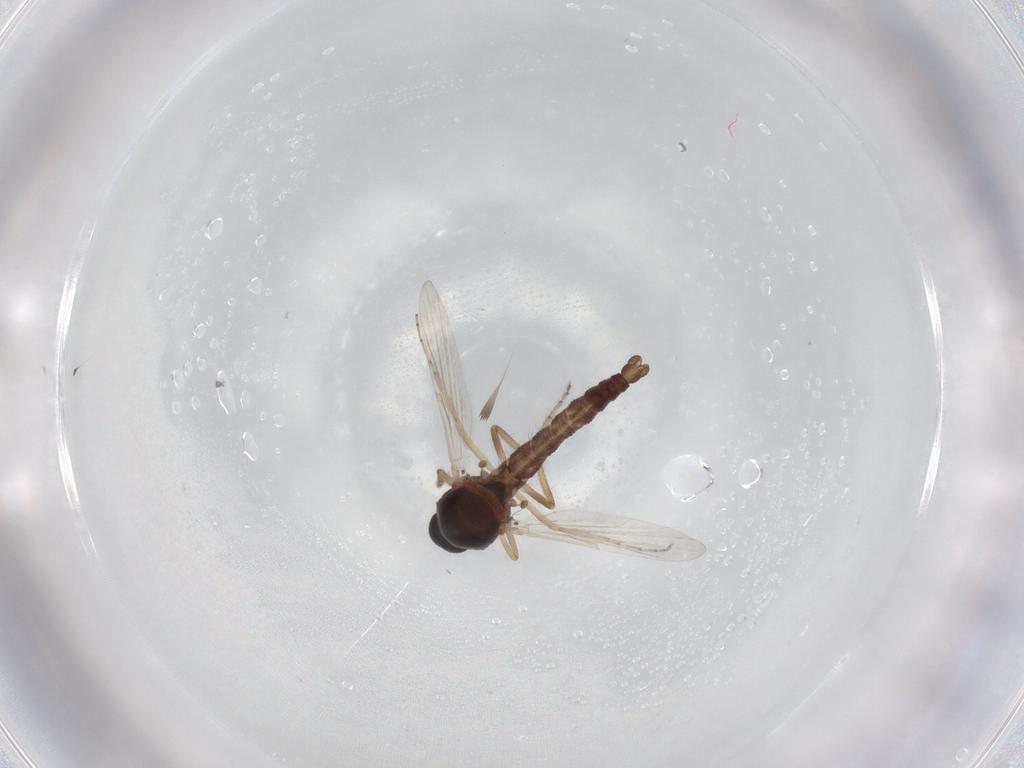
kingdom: Animalia
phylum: Arthropoda
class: Insecta
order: Diptera
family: Ceratopogonidae
